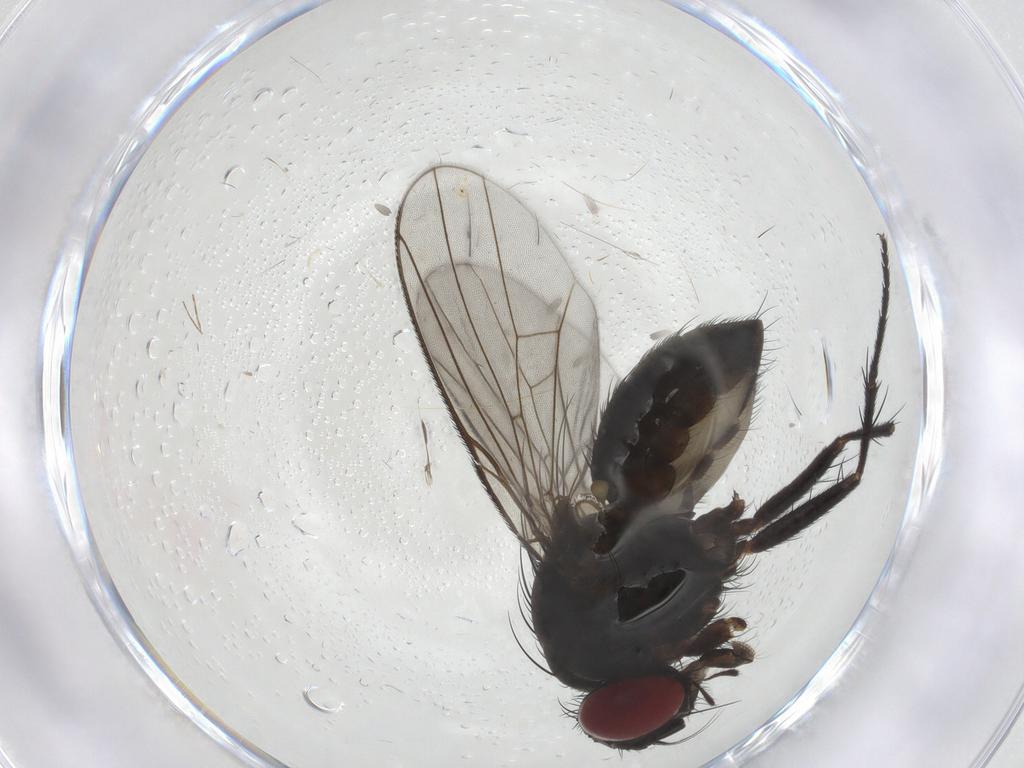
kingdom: Animalia
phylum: Arthropoda
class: Insecta
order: Diptera
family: Muscidae
